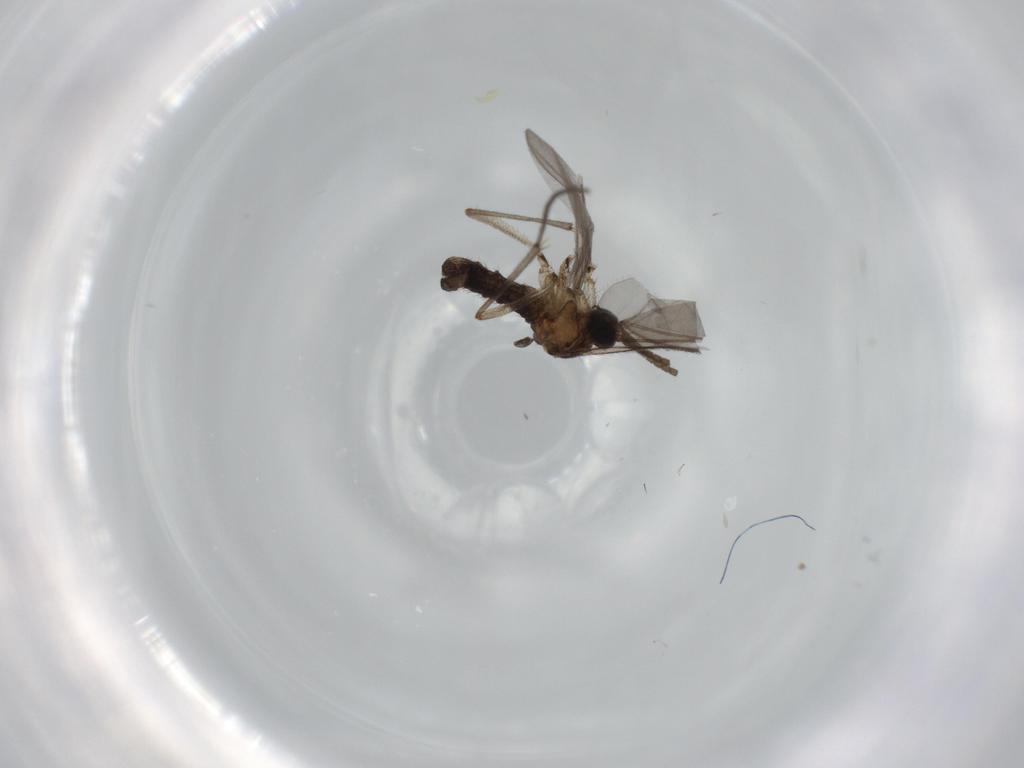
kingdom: Animalia
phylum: Arthropoda
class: Insecta
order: Diptera
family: Sciaridae
